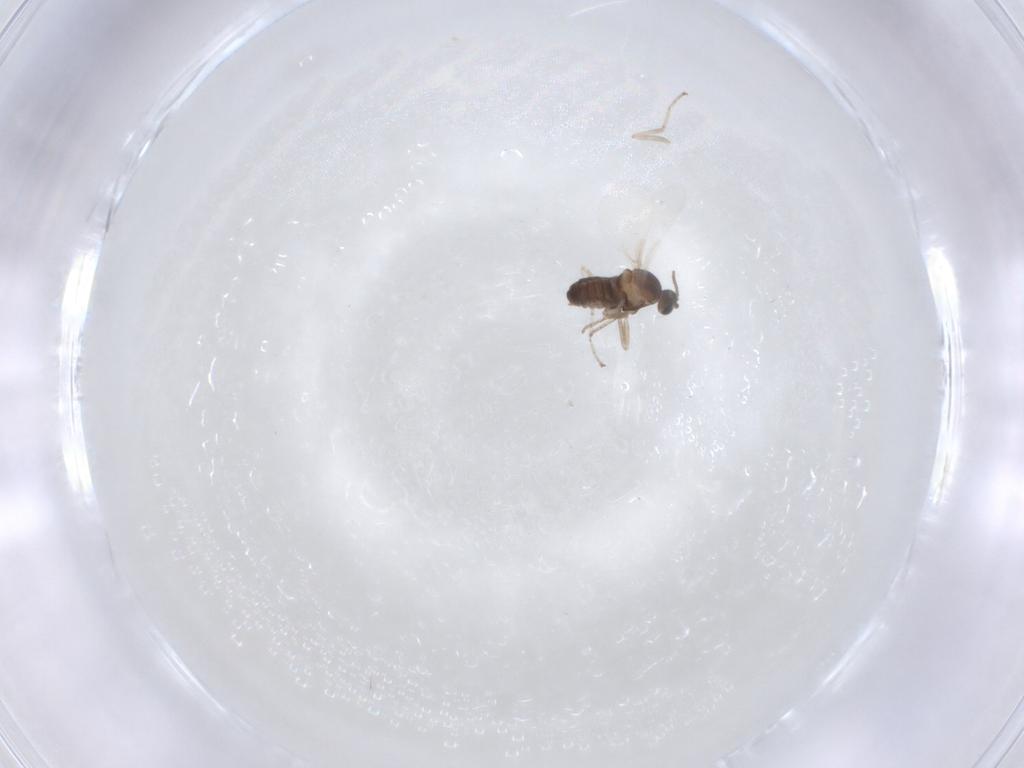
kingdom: Animalia
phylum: Arthropoda
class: Insecta
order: Diptera
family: Cecidomyiidae
